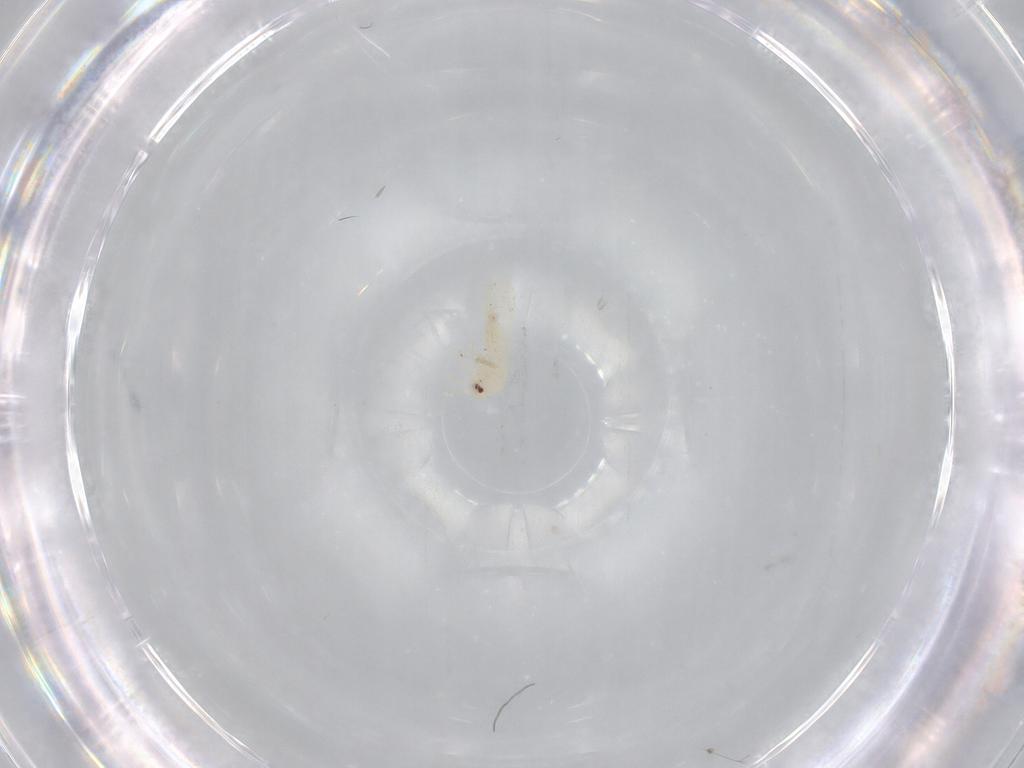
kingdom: Animalia
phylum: Arthropoda
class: Insecta
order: Hemiptera
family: Aleyrodidae
